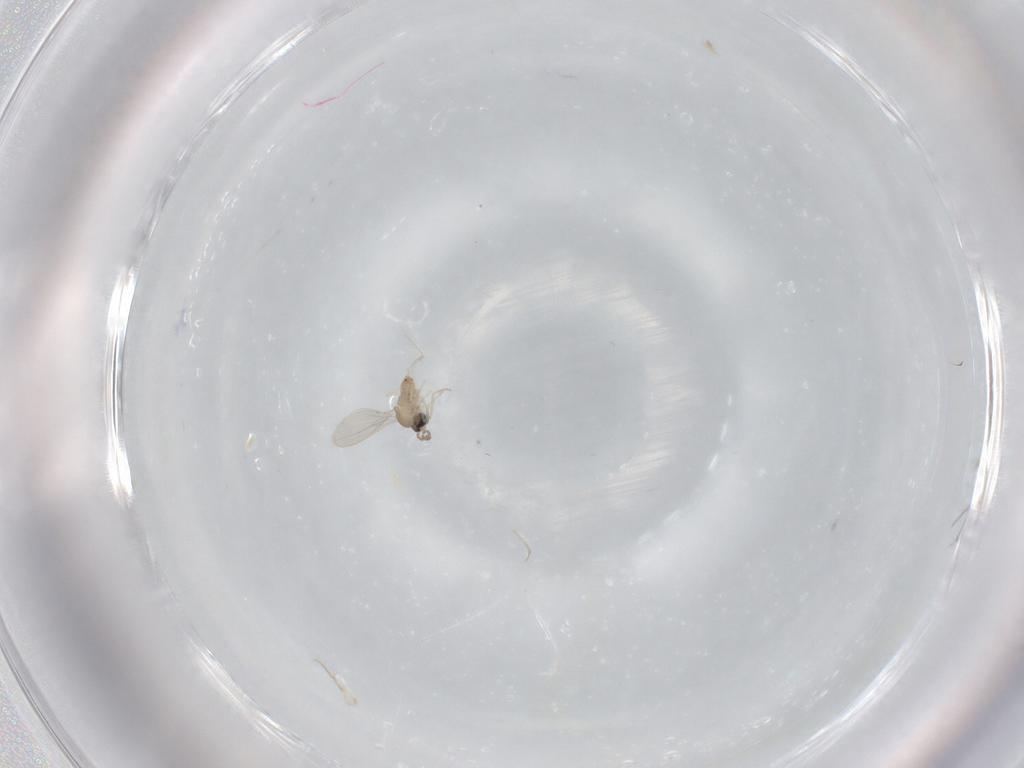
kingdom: Animalia
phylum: Arthropoda
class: Insecta
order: Diptera
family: Cecidomyiidae
